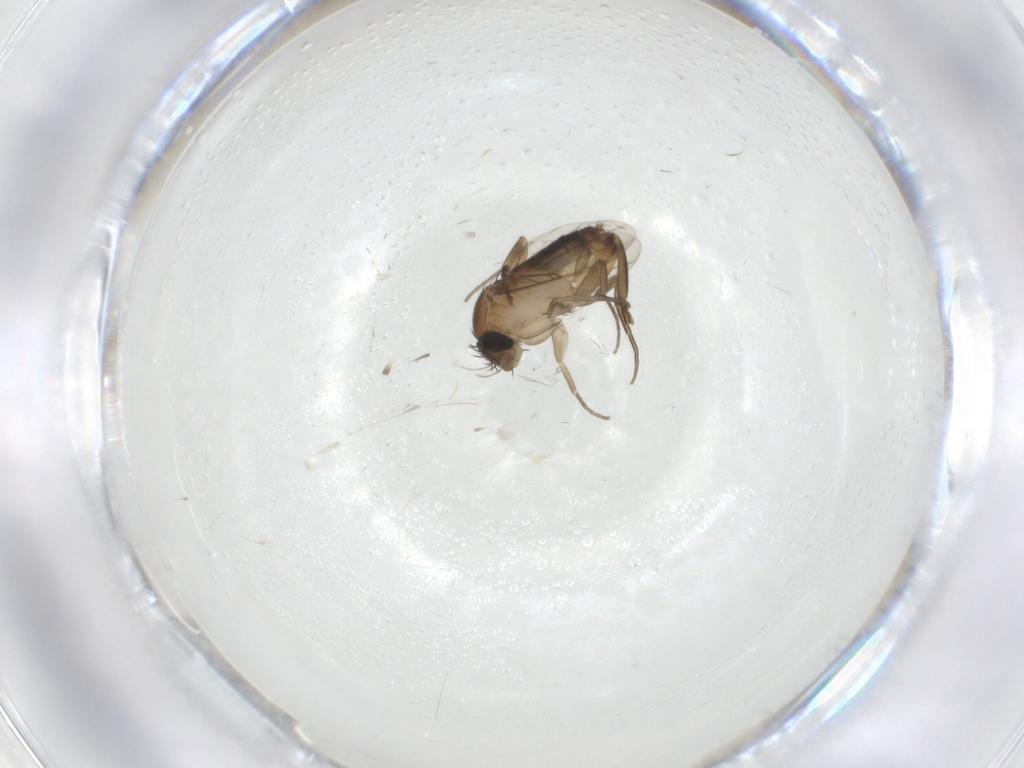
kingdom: Animalia
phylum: Arthropoda
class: Insecta
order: Diptera
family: Phoridae
